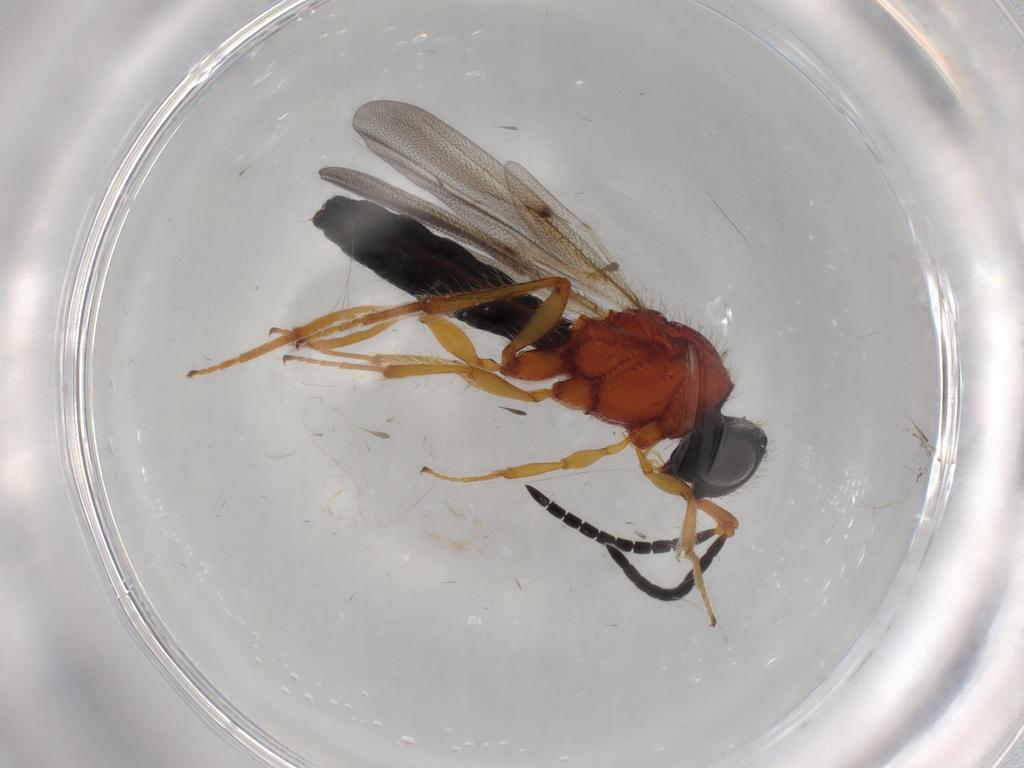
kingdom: Animalia
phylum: Arthropoda
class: Insecta
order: Hymenoptera
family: Scelionidae
